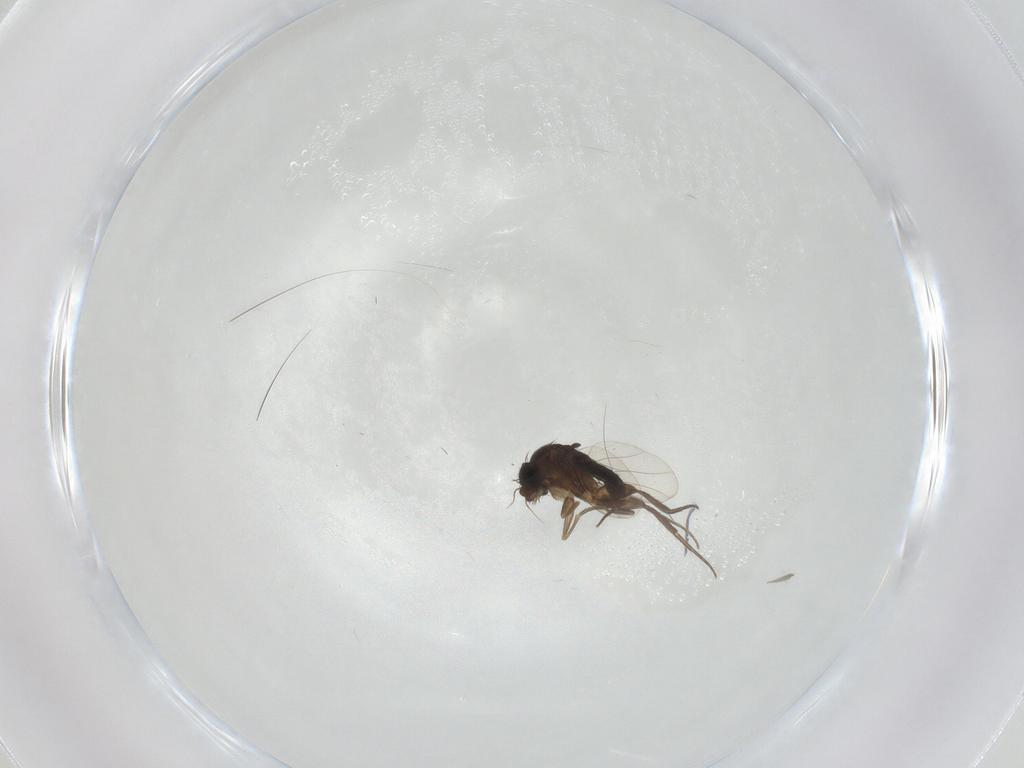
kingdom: Animalia
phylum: Arthropoda
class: Insecta
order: Diptera
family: Phoridae
